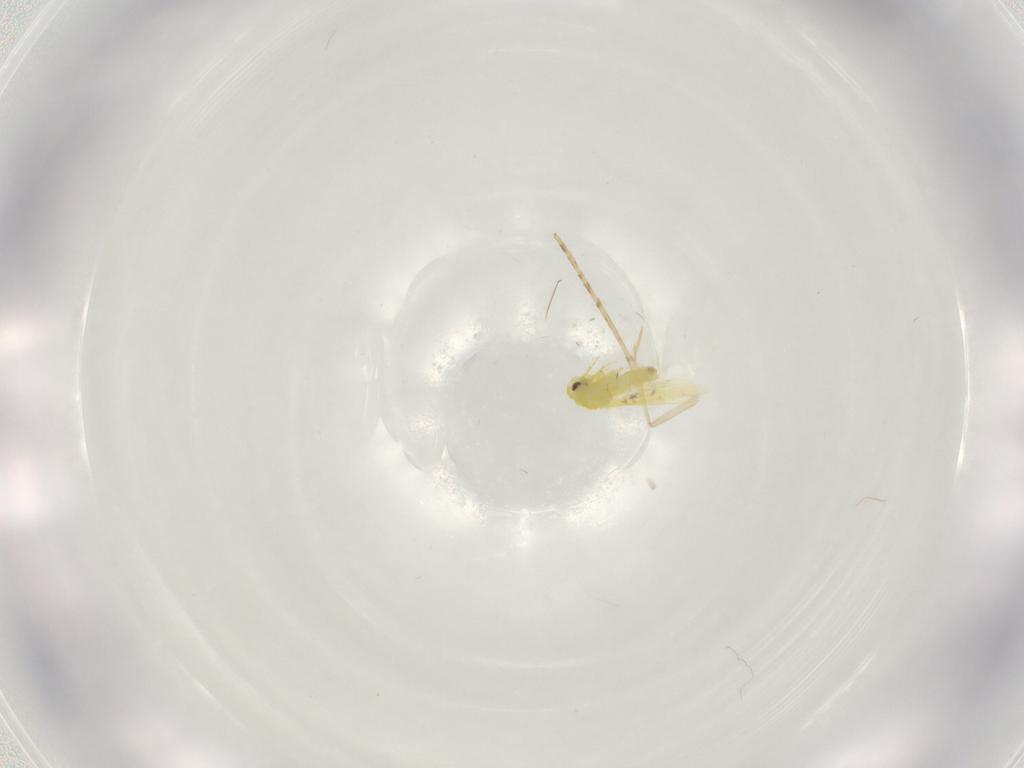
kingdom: Animalia
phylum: Arthropoda
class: Insecta
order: Hemiptera
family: Aleyrodidae
